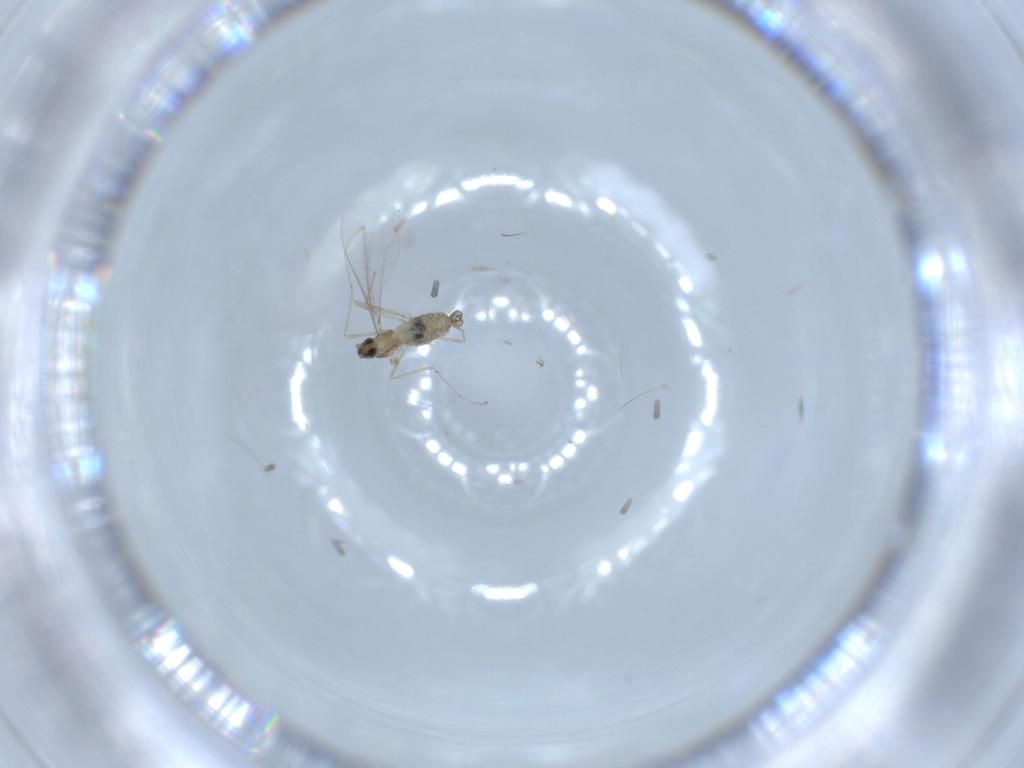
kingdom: Animalia
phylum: Arthropoda
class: Insecta
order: Diptera
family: Cecidomyiidae
